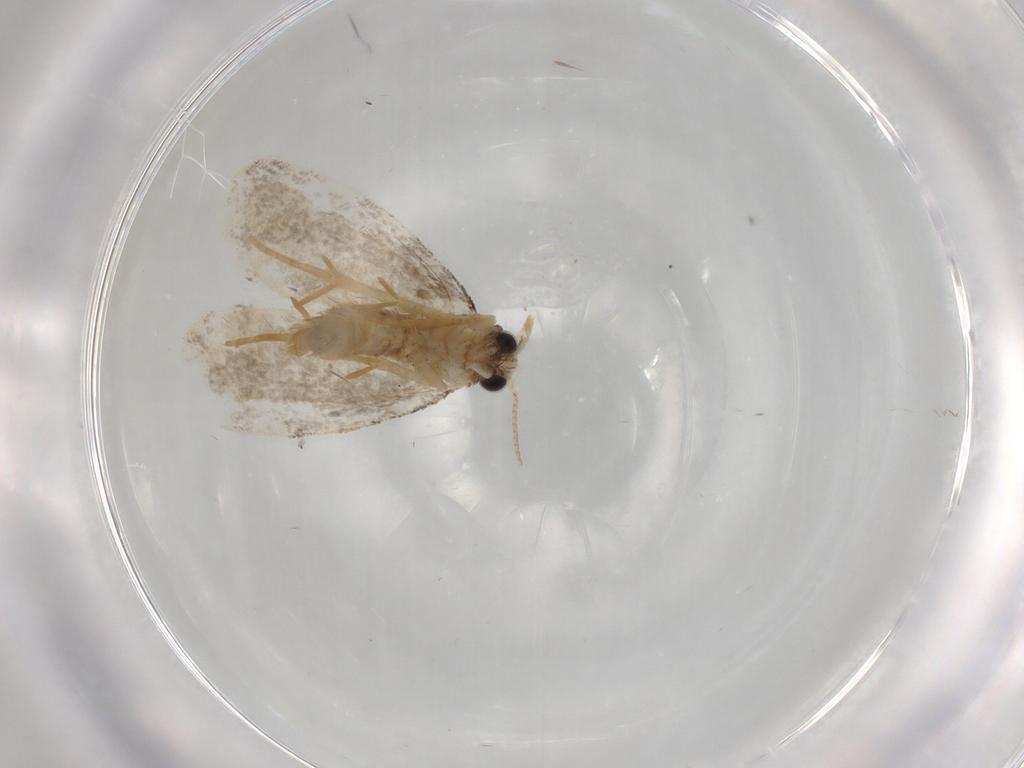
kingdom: Animalia
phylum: Arthropoda
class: Insecta
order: Lepidoptera
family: Psychidae
